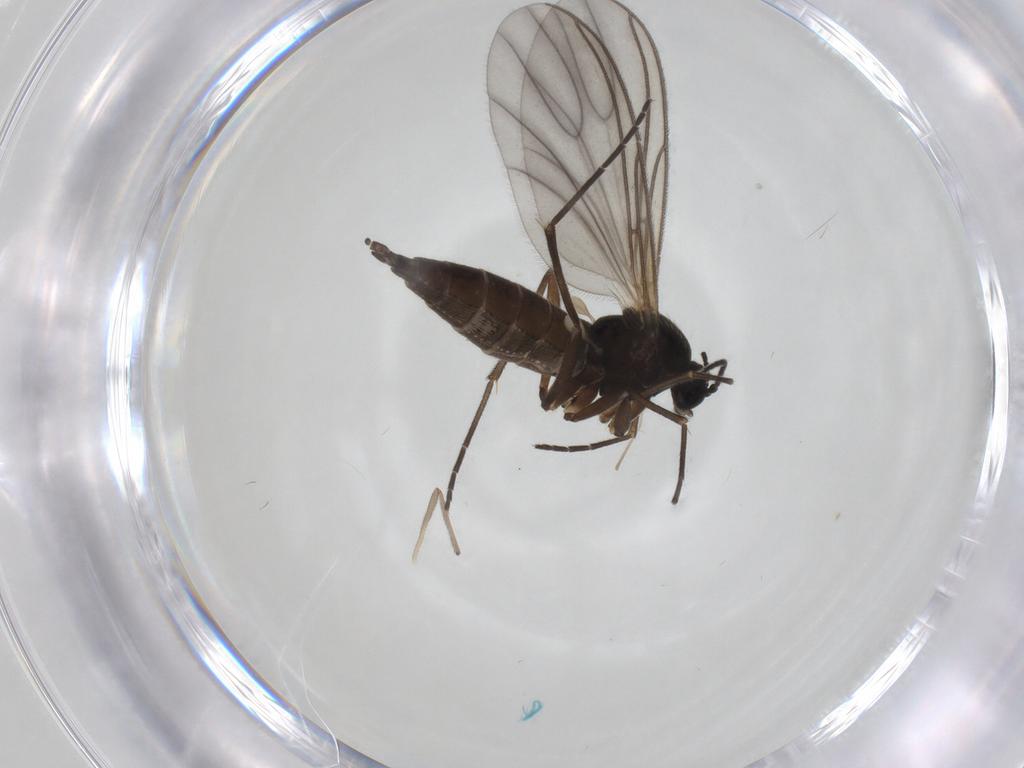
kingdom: Animalia
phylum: Arthropoda
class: Insecta
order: Diptera
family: Sciaridae
